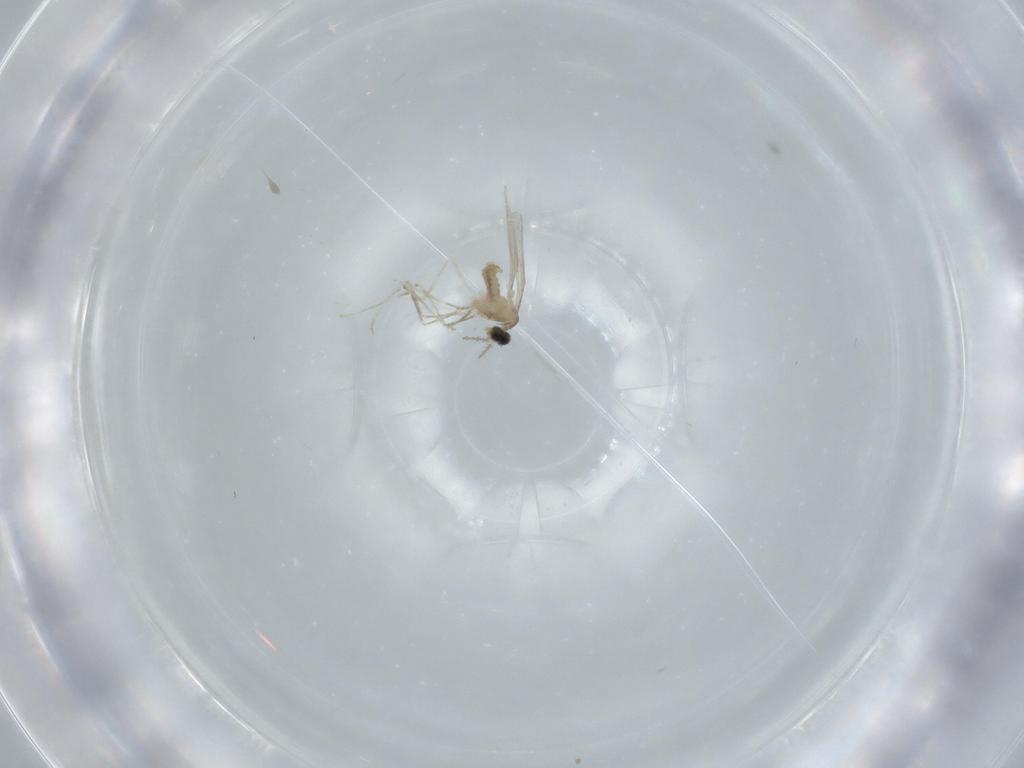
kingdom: Animalia
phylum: Arthropoda
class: Insecta
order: Diptera
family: Cecidomyiidae
